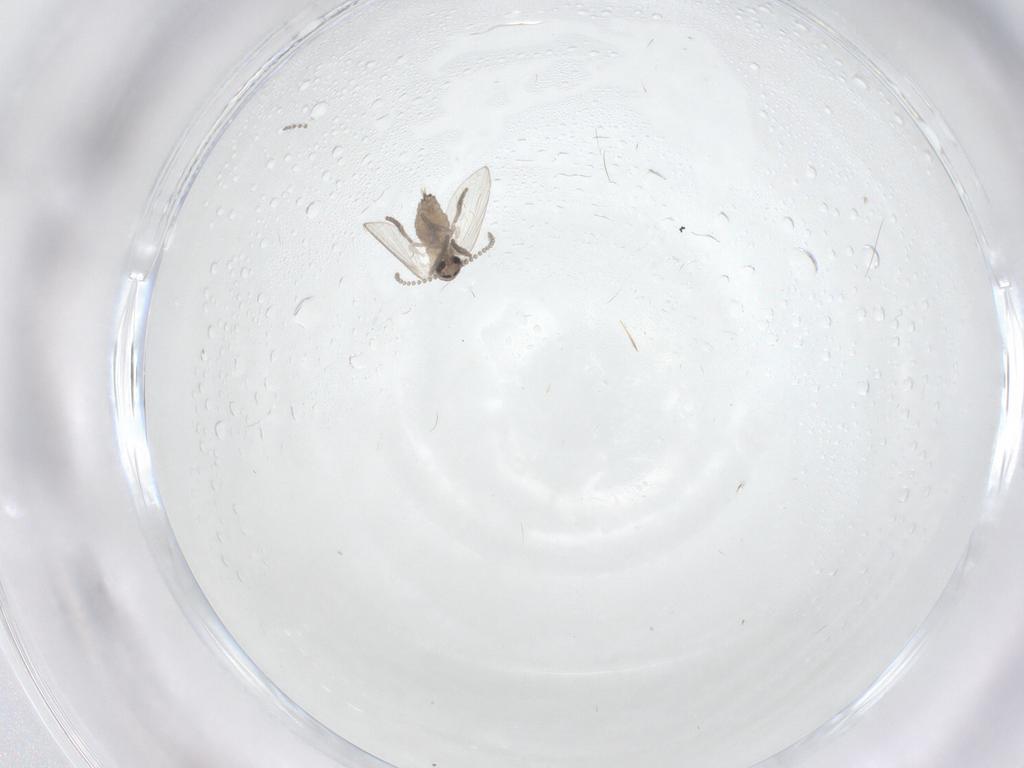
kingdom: Animalia
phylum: Arthropoda
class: Insecta
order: Diptera
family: Psychodidae
